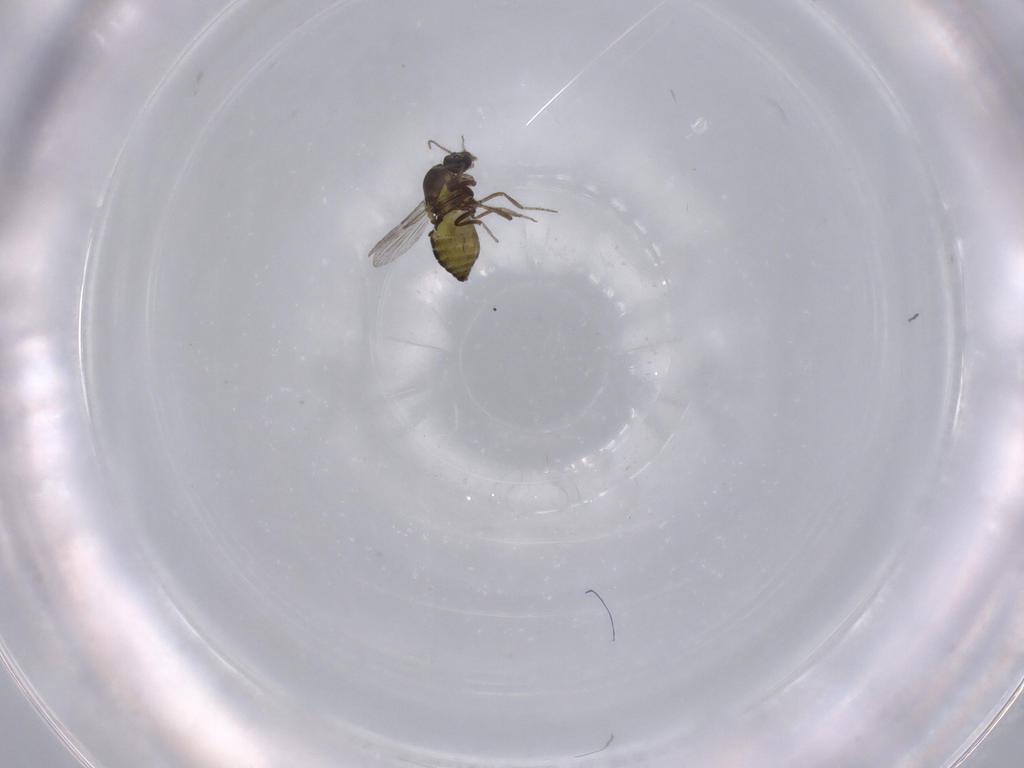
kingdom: Animalia
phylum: Arthropoda
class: Insecta
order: Diptera
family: Ceratopogonidae
